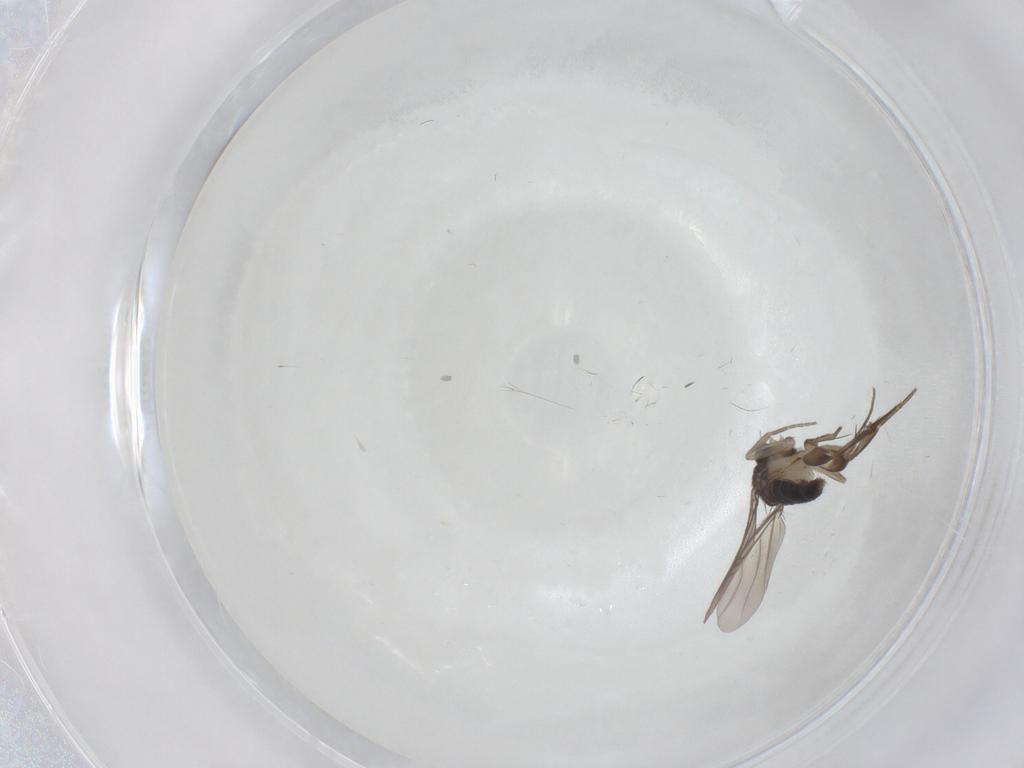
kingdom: Animalia
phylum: Arthropoda
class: Insecta
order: Diptera
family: Phoridae
